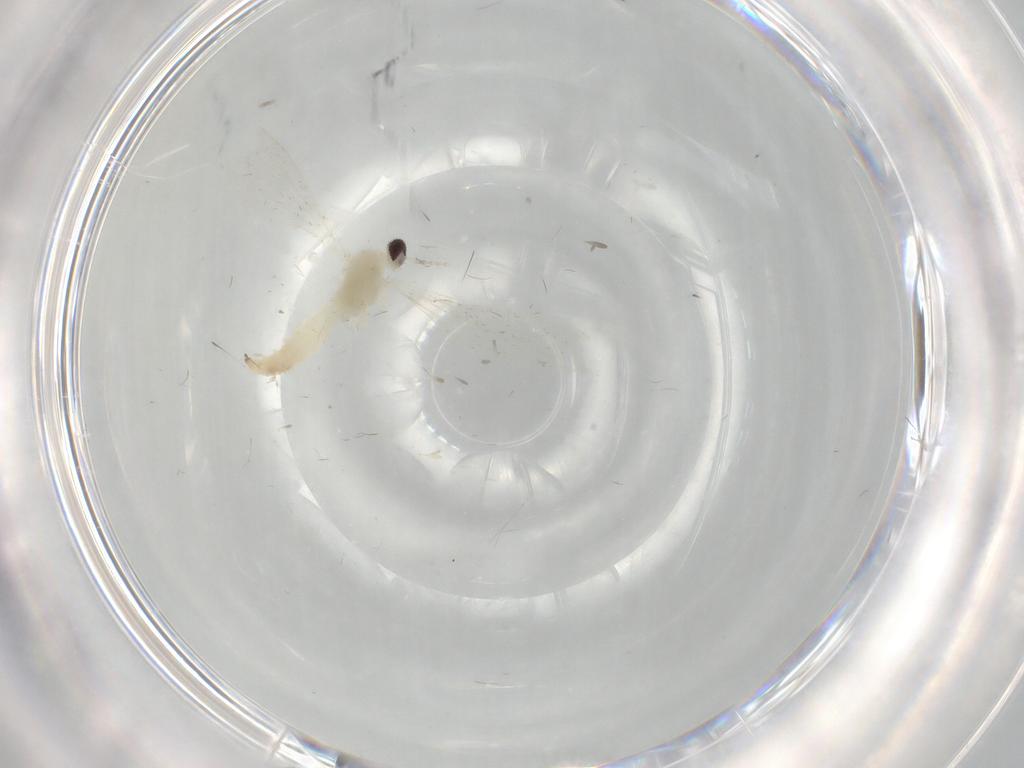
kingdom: Animalia
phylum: Arthropoda
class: Insecta
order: Diptera
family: Cecidomyiidae
